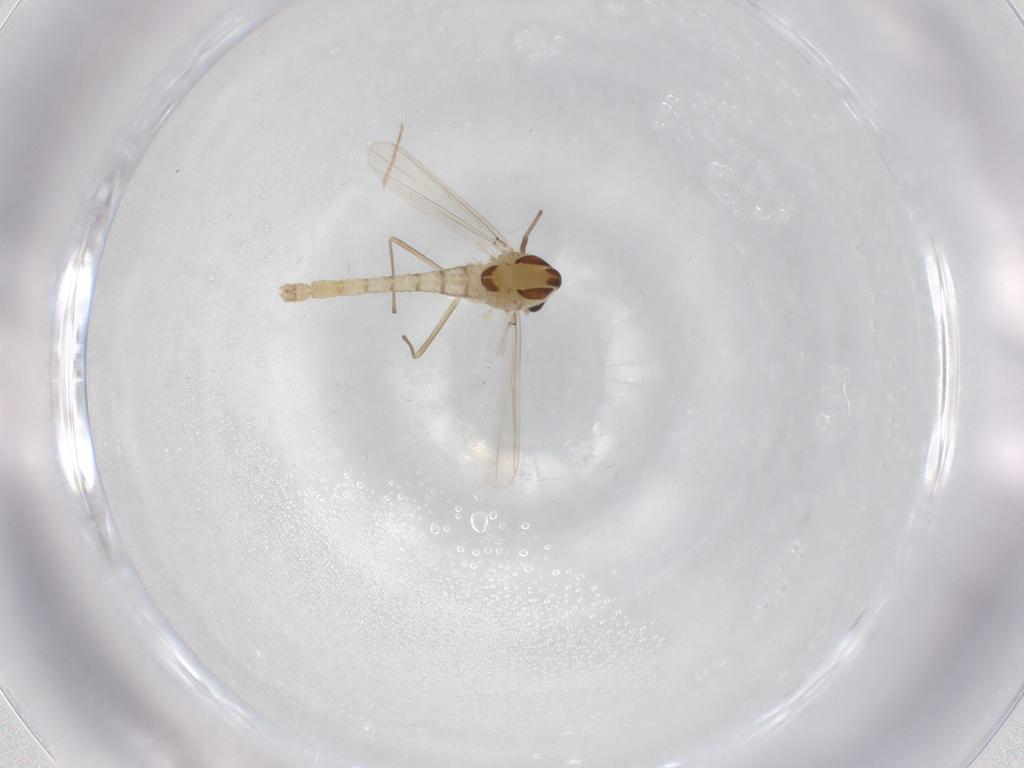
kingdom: Animalia
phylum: Arthropoda
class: Insecta
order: Diptera
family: Chironomidae
